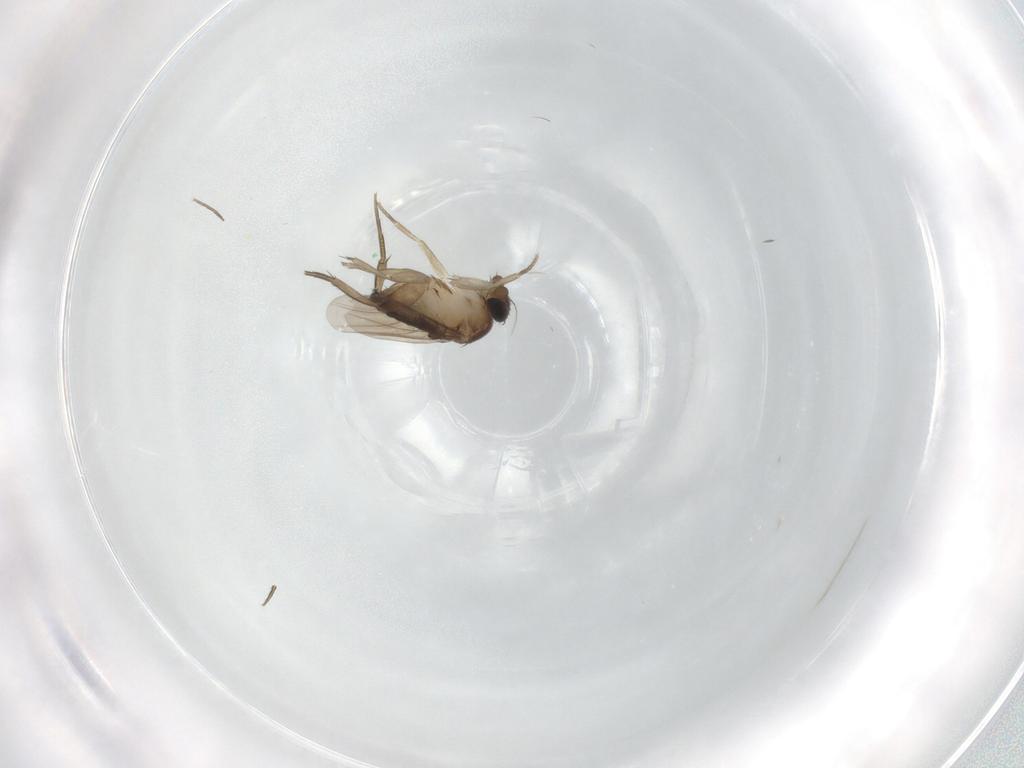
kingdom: Animalia
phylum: Arthropoda
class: Insecta
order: Diptera
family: Phoridae
